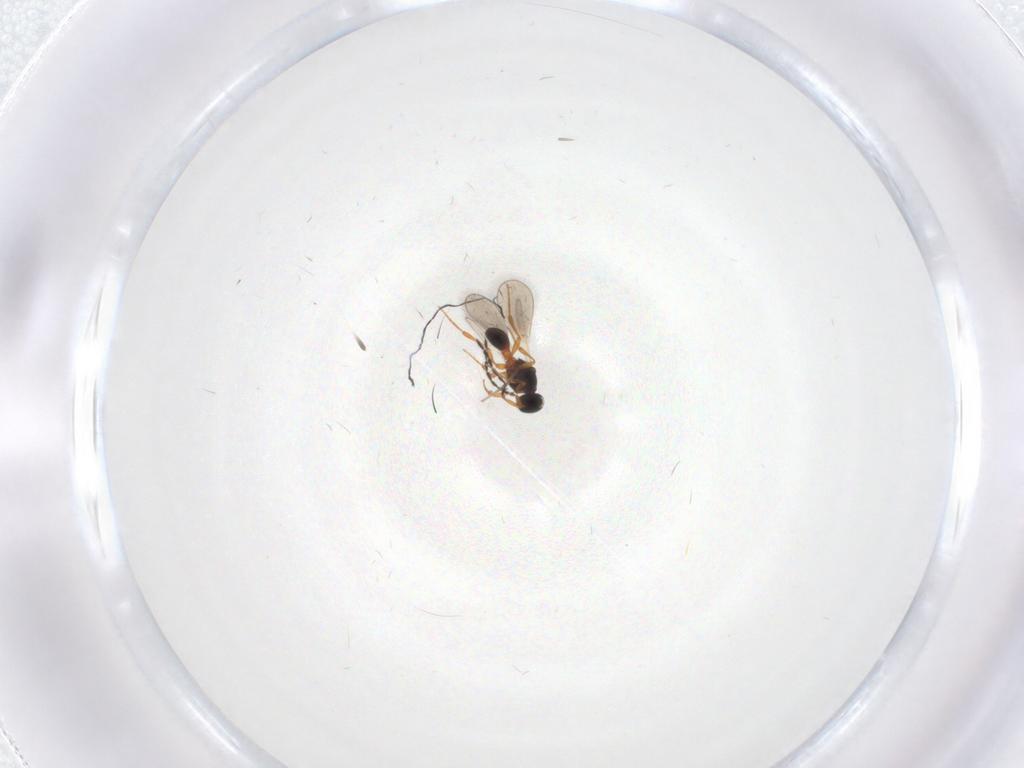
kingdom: Animalia
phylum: Arthropoda
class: Insecta
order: Hymenoptera
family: Platygastridae
